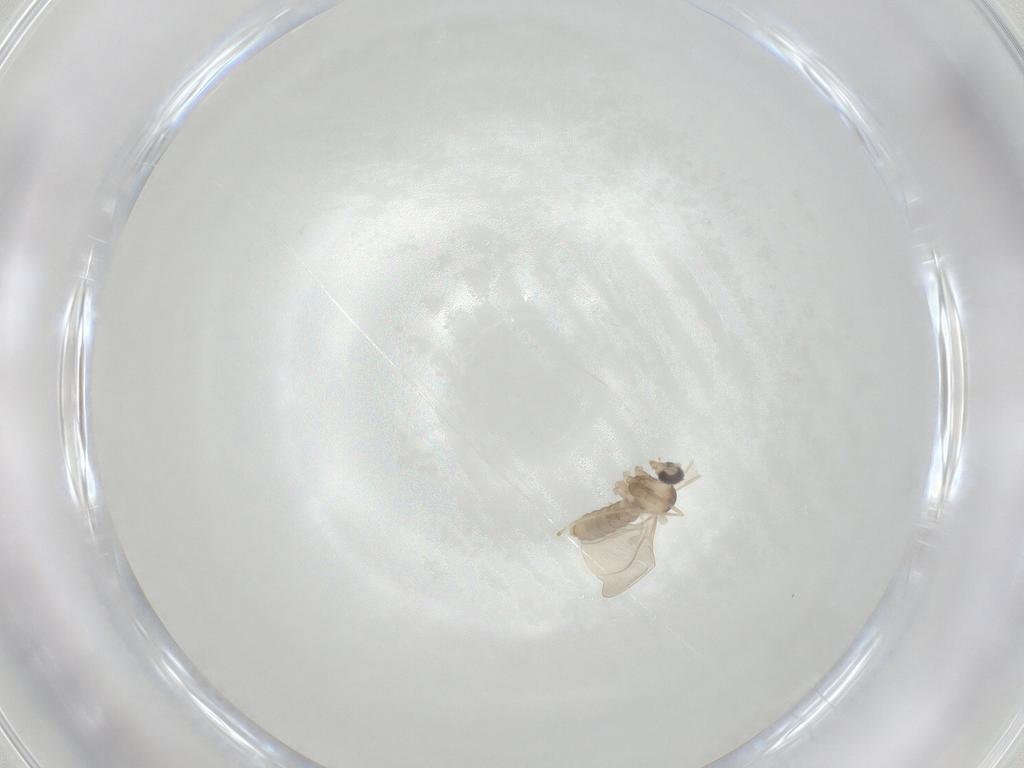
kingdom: Animalia
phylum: Arthropoda
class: Insecta
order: Diptera
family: Cecidomyiidae
